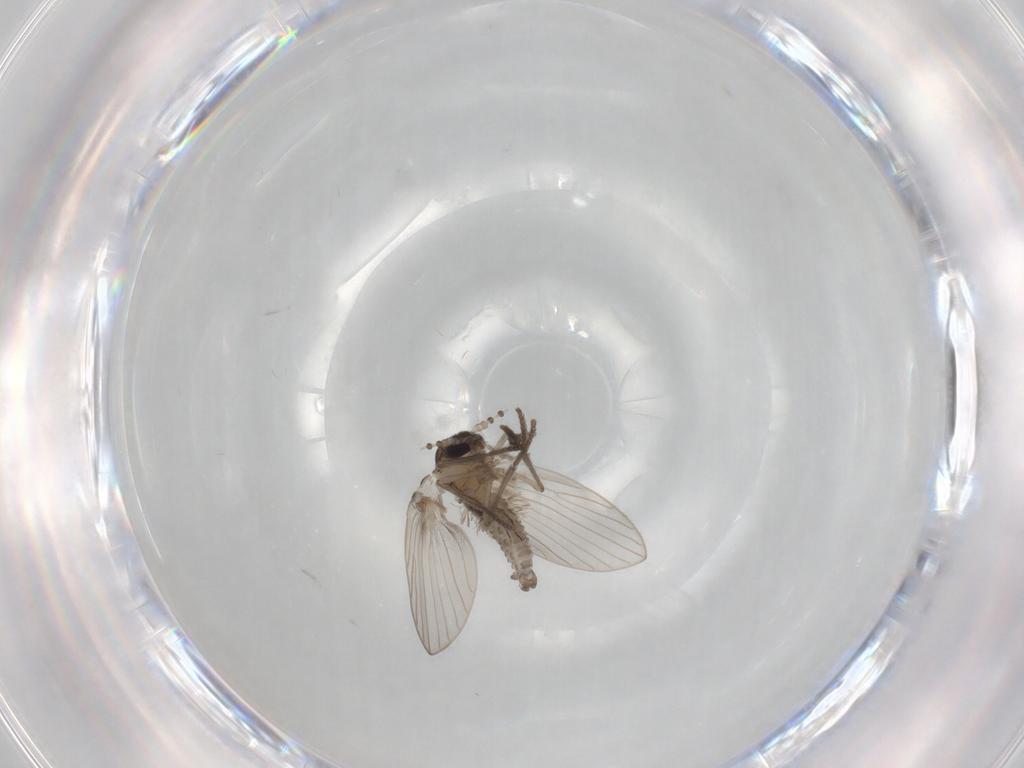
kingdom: Animalia
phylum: Arthropoda
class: Insecta
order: Diptera
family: Psychodidae
